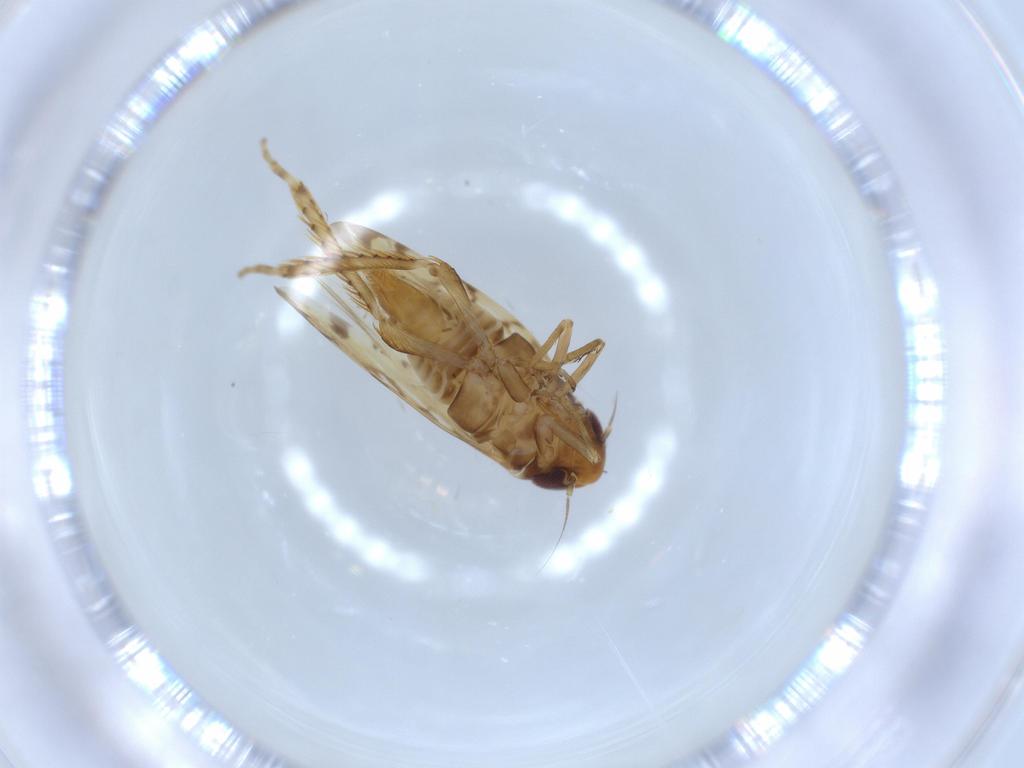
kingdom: Animalia
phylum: Arthropoda
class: Insecta
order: Hemiptera
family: Cicadellidae
